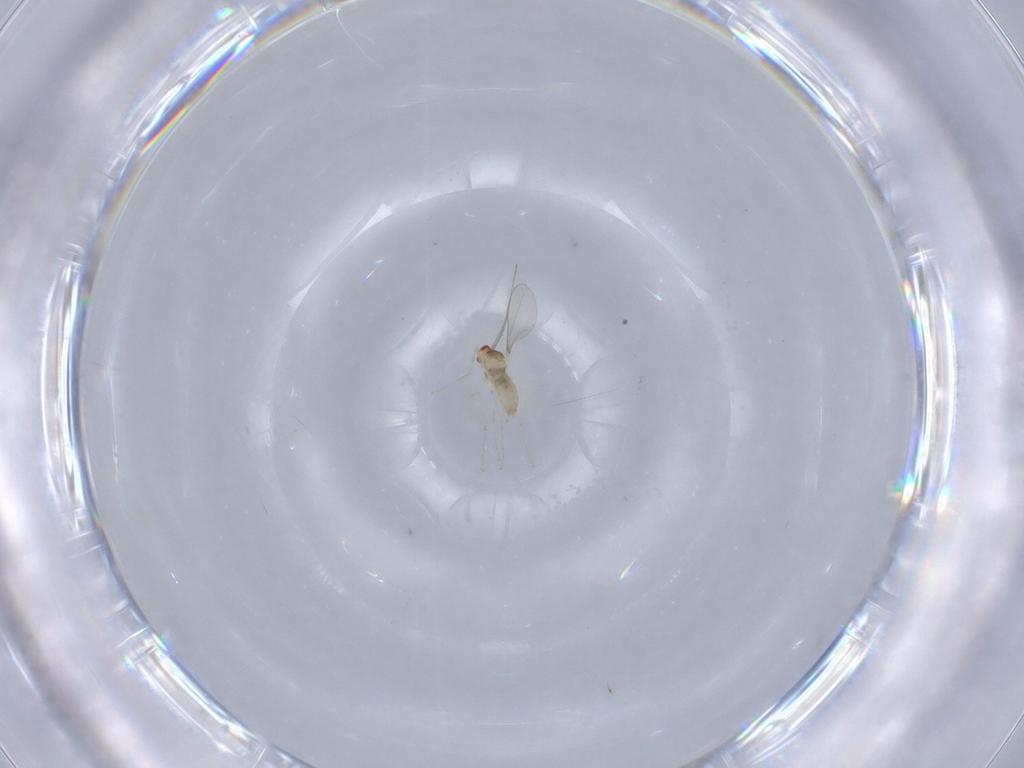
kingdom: Animalia
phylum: Arthropoda
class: Insecta
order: Diptera
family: Cecidomyiidae
